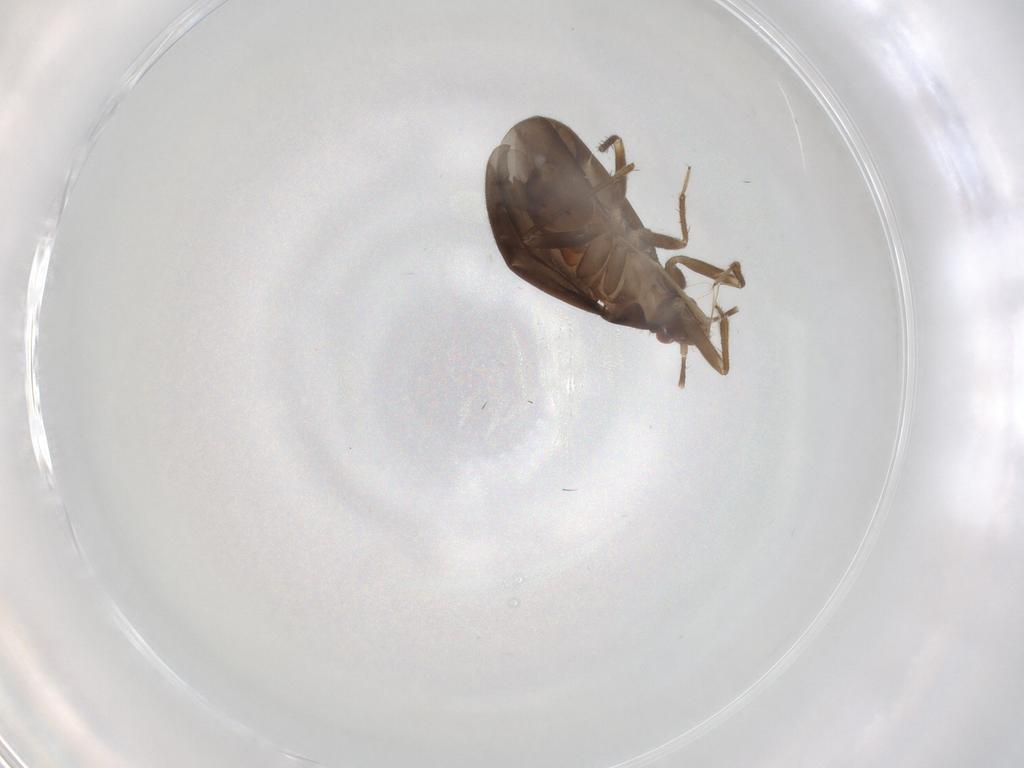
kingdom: Animalia
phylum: Arthropoda
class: Insecta
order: Hemiptera
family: Ceratocombidae
